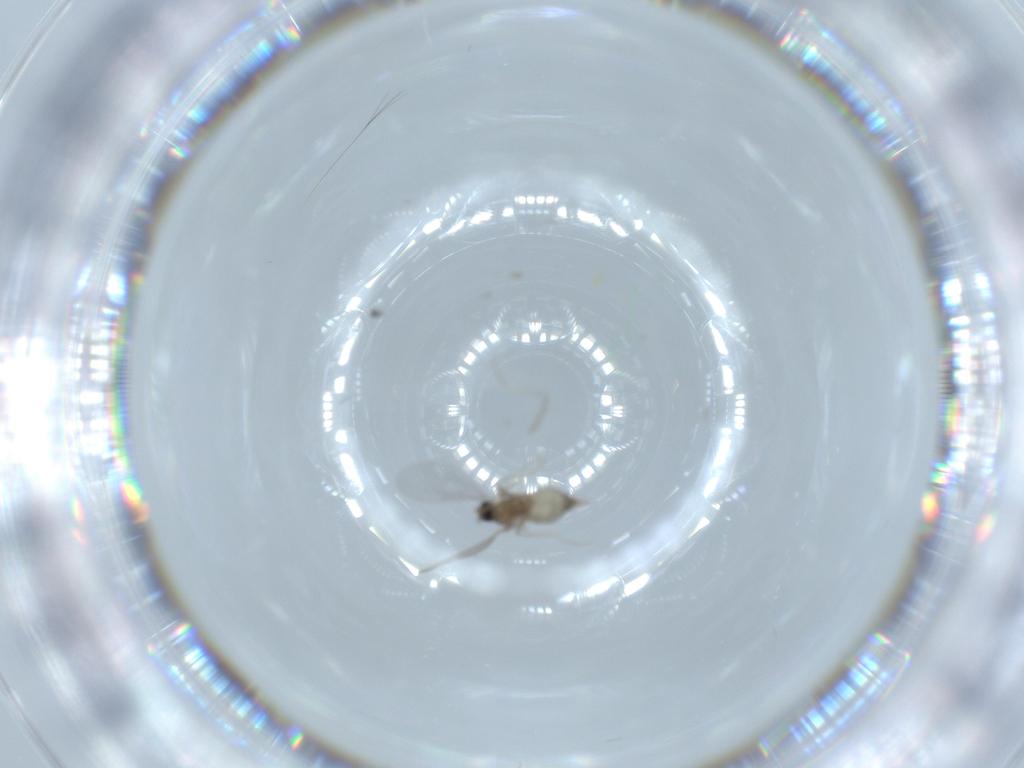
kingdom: Animalia
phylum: Arthropoda
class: Insecta
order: Diptera
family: Cecidomyiidae
